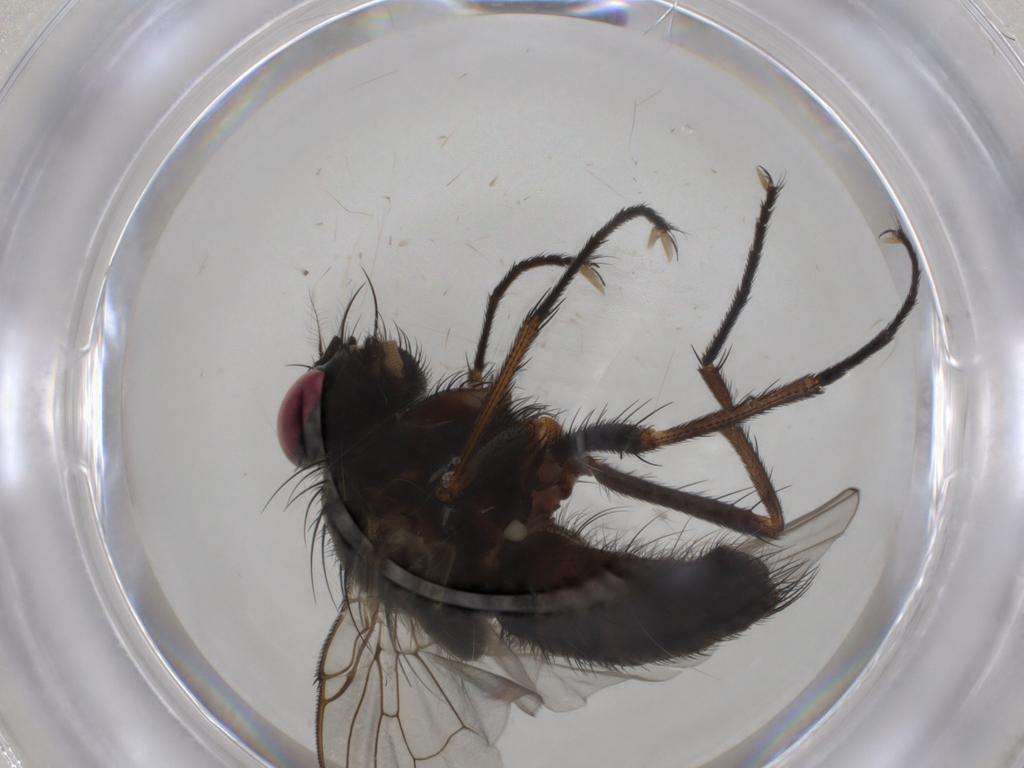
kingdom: Animalia
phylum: Arthropoda
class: Insecta
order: Diptera
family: Muscidae
